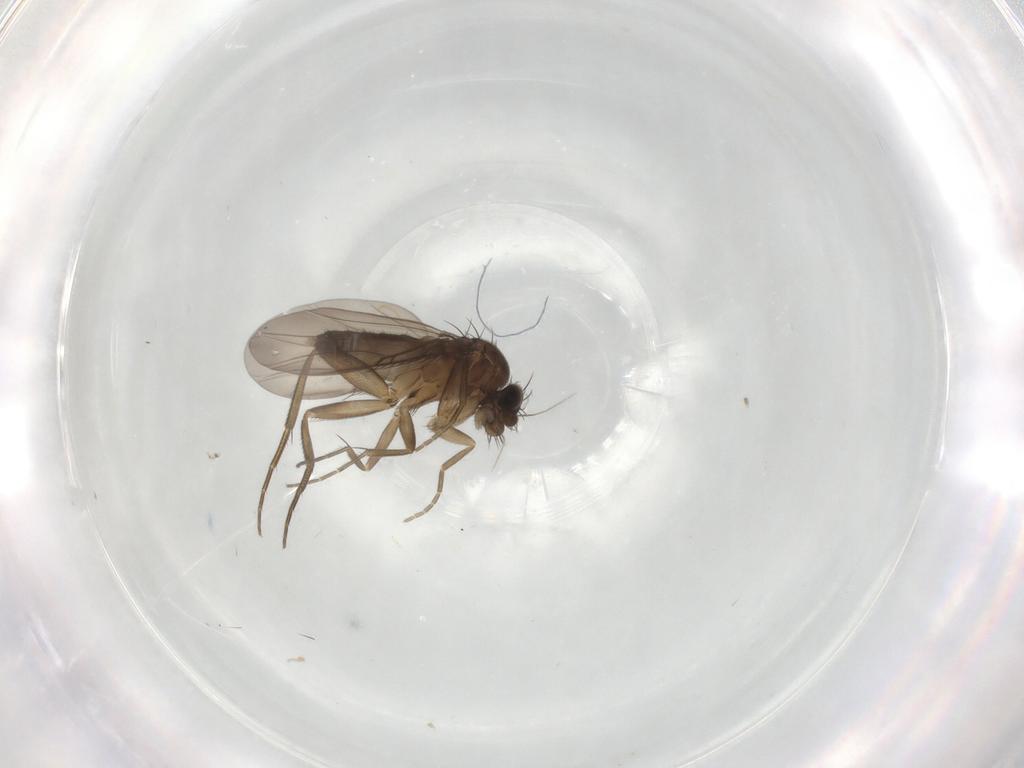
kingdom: Animalia
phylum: Arthropoda
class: Insecta
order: Diptera
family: Phoridae
